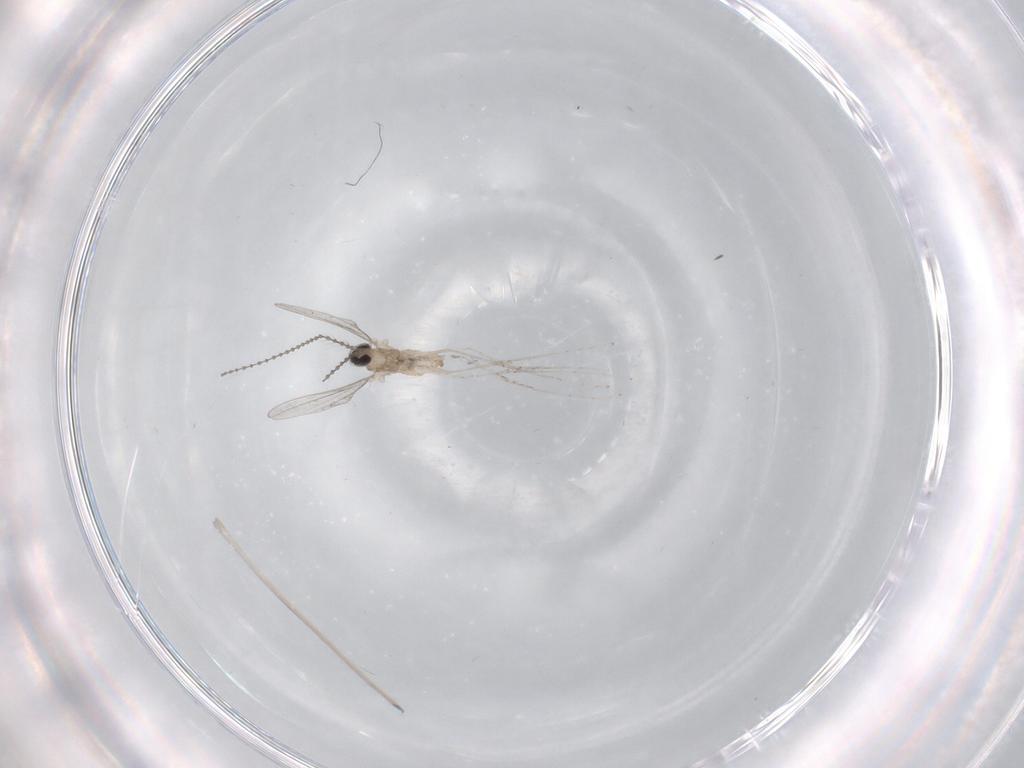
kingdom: Animalia
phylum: Arthropoda
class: Insecta
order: Diptera
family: Cecidomyiidae
